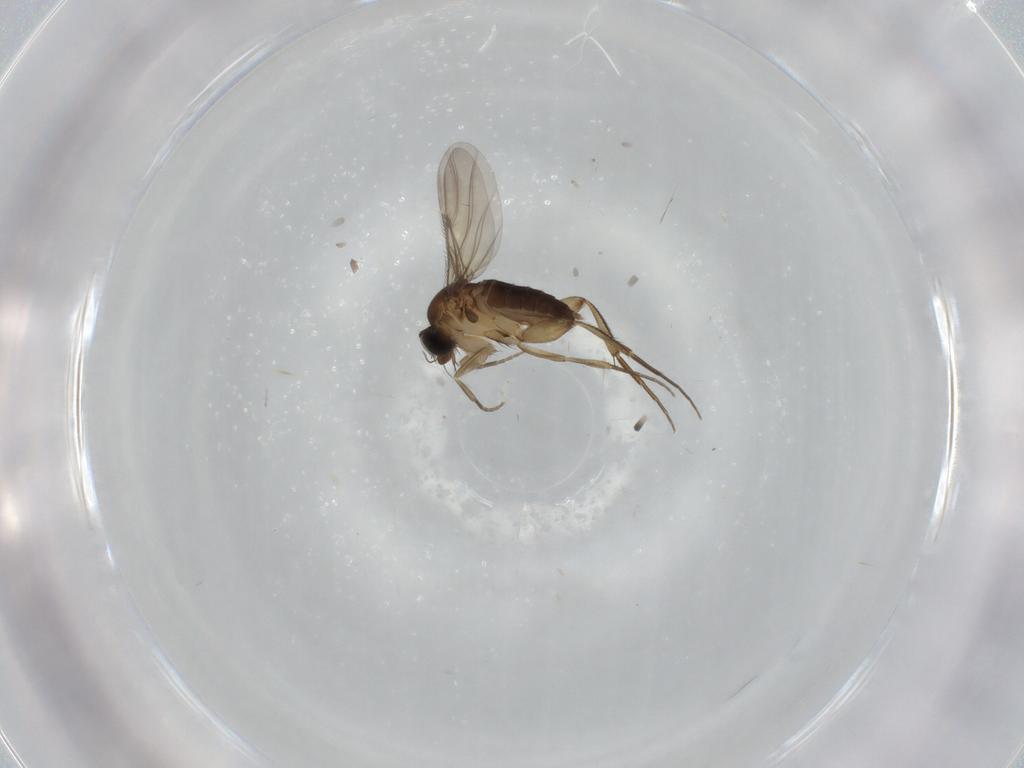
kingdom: Animalia
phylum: Arthropoda
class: Insecta
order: Diptera
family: Phoridae
